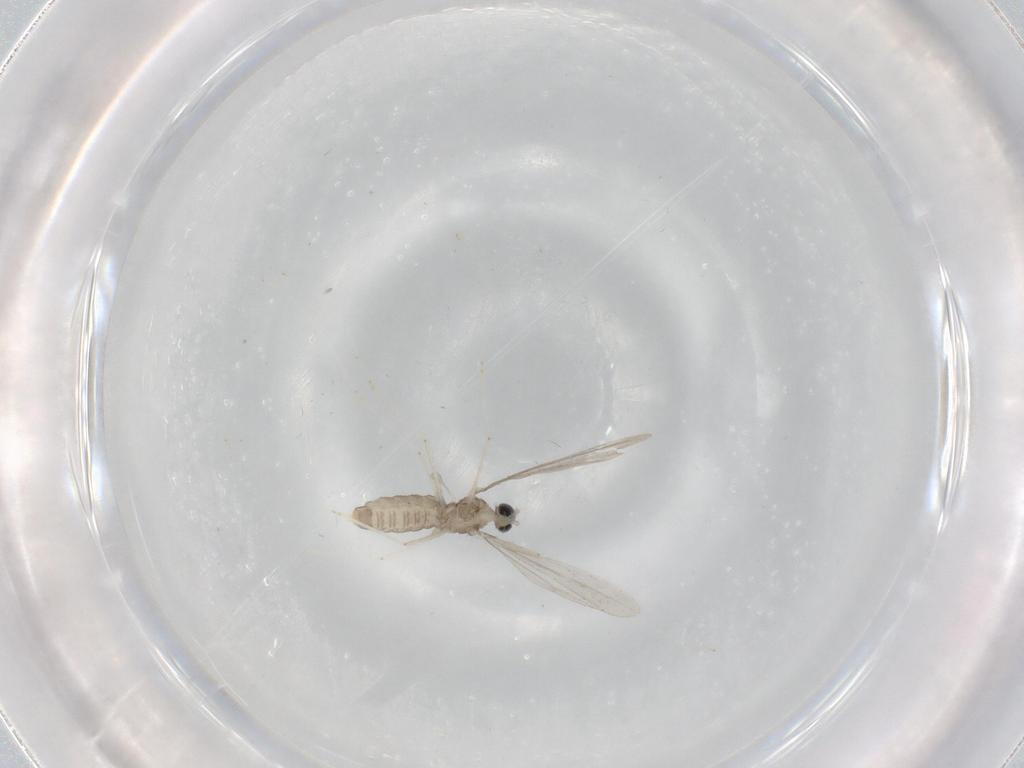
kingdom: Animalia
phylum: Arthropoda
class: Insecta
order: Diptera
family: Cecidomyiidae
